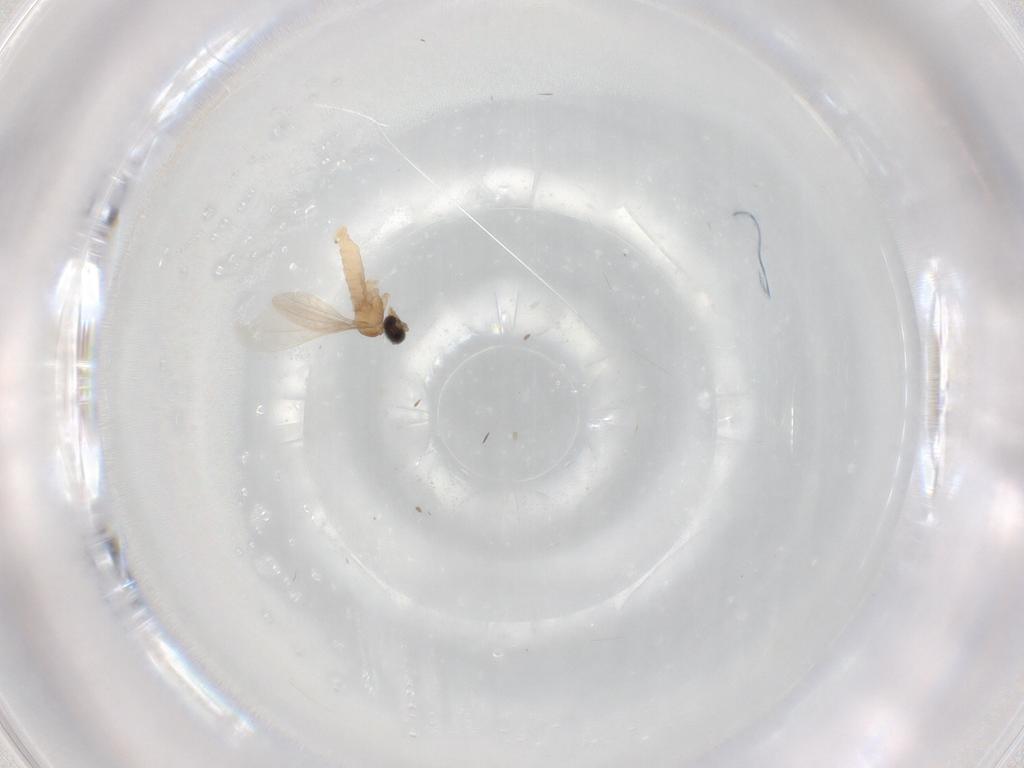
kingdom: Animalia
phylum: Arthropoda
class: Insecta
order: Diptera
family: Cecidomyiidae
